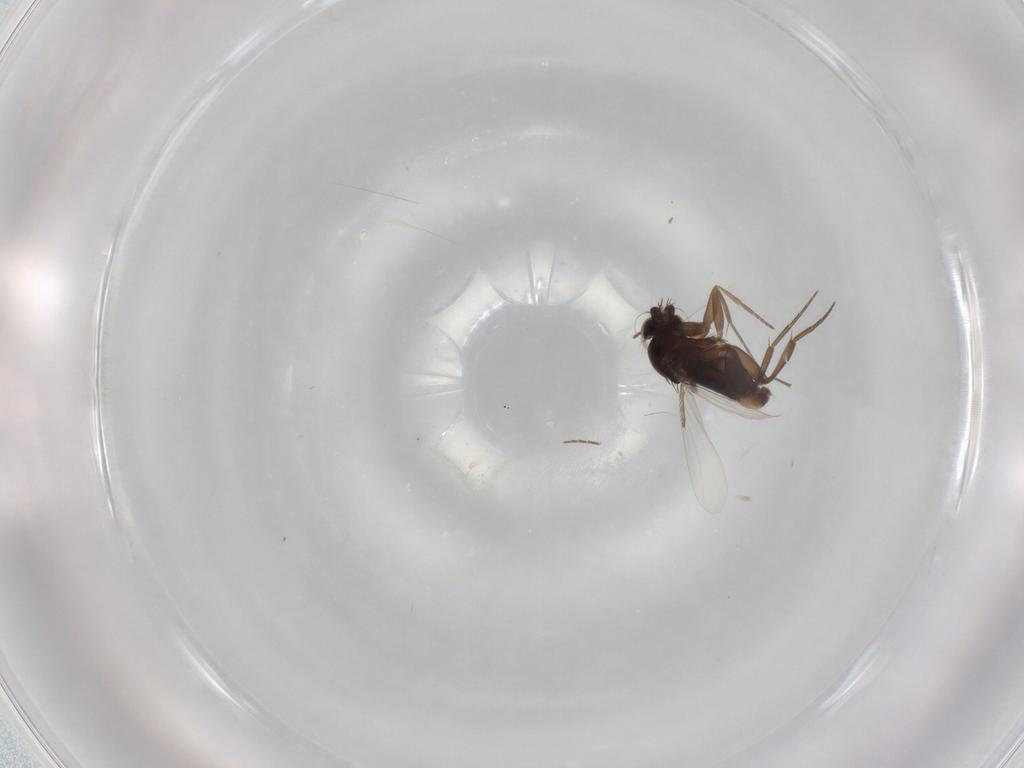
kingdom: Animalia
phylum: Arthropoda
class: Insecta
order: Diptera
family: Phoridae
